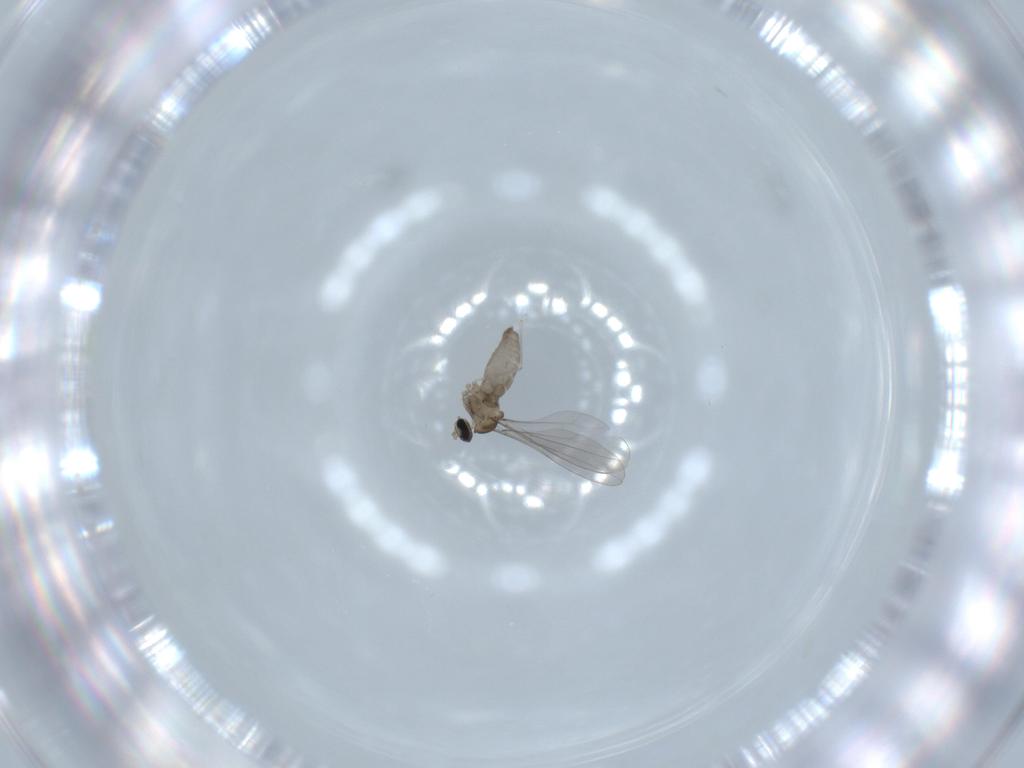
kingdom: Animalia
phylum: Arthropoda
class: Insecta
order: Diptera
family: Cecidomyiidae
